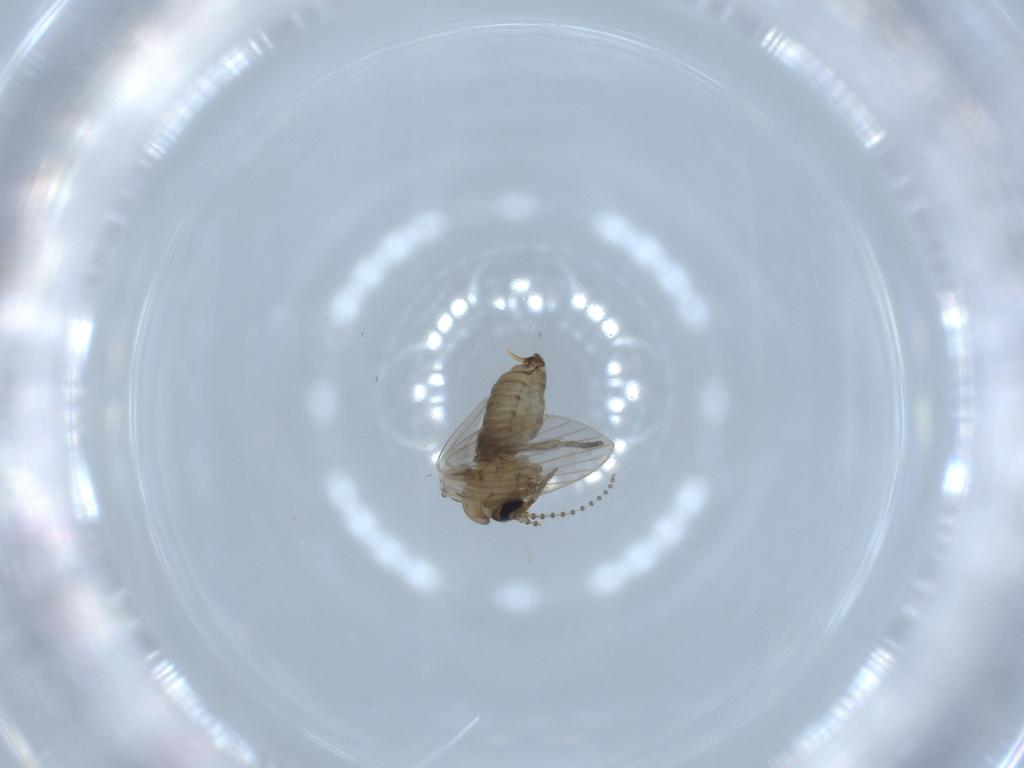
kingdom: Animalia
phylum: Arthropoda
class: Insecta
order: Diptera
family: Psychodidae
